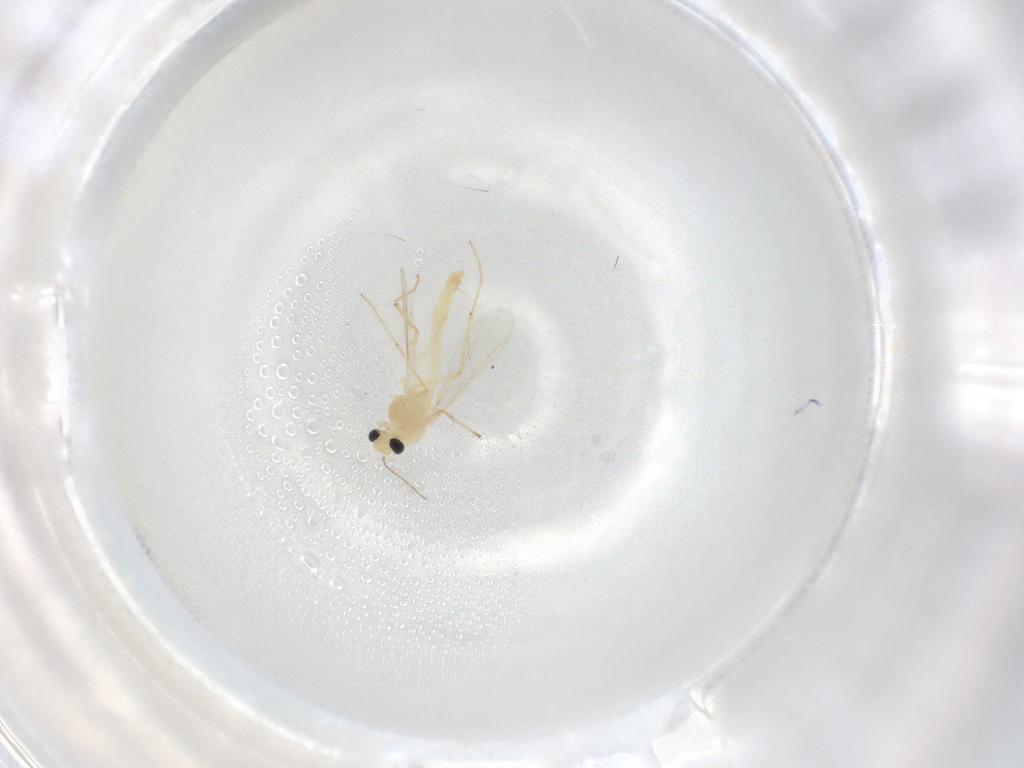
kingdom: Animalia
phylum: Arthropoda
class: Insecta
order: Diptera
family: Chironomidae
